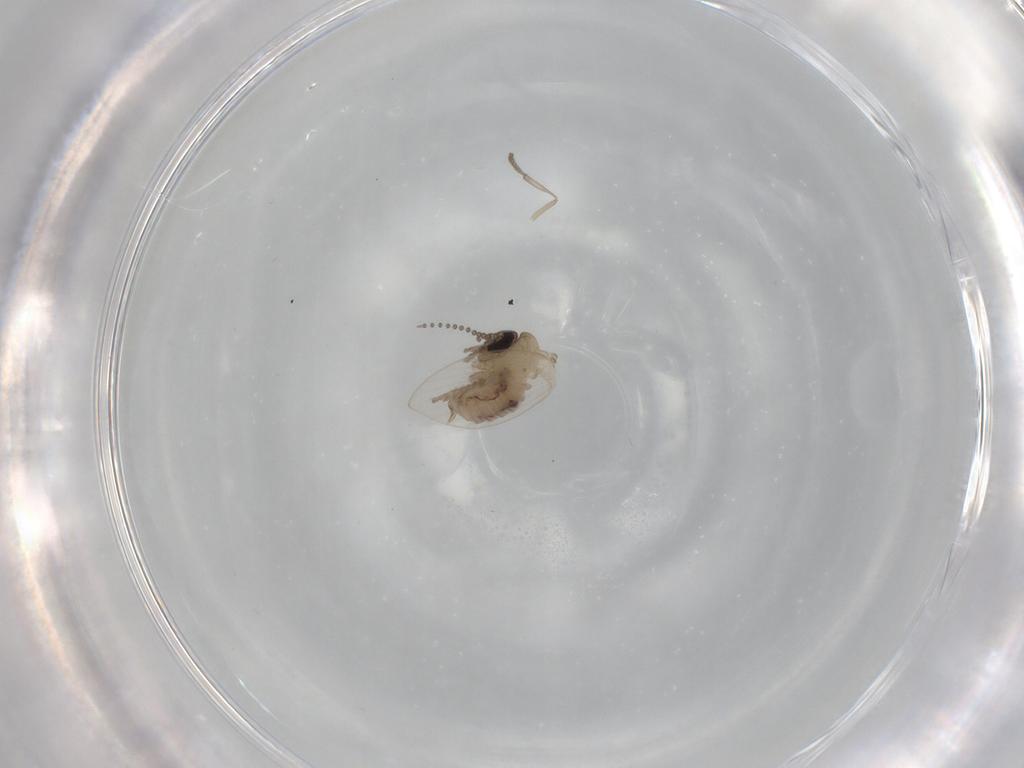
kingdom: Animalia
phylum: Arthropoda
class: Insecta
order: Diptera
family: Psychodidae
